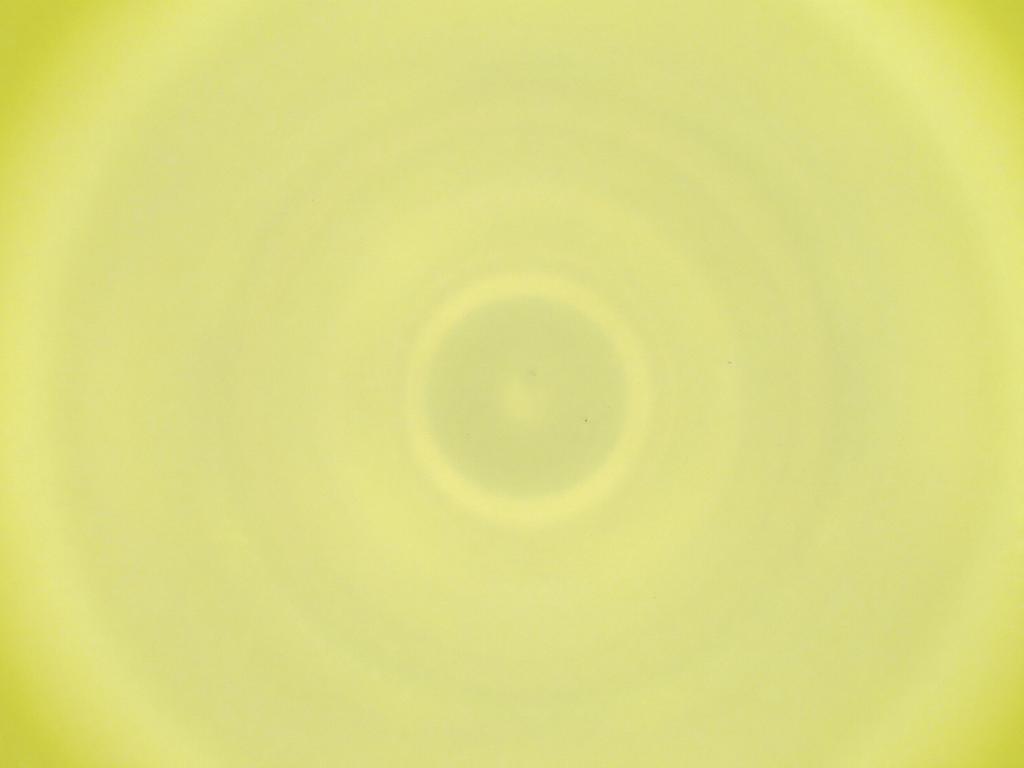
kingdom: Animalia
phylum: Arthropoda
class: Insecta
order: Diptera
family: Cecidomyiidae
